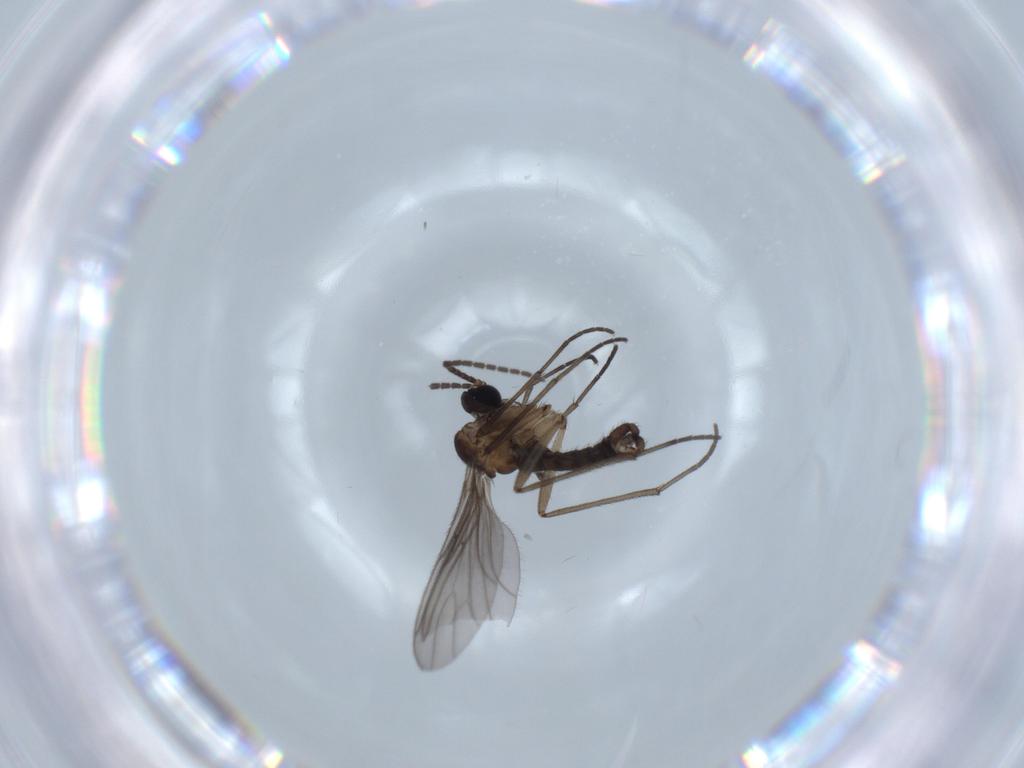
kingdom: Animalia
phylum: Arthropoda
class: Insecta
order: Diptera
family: Sciaridae
